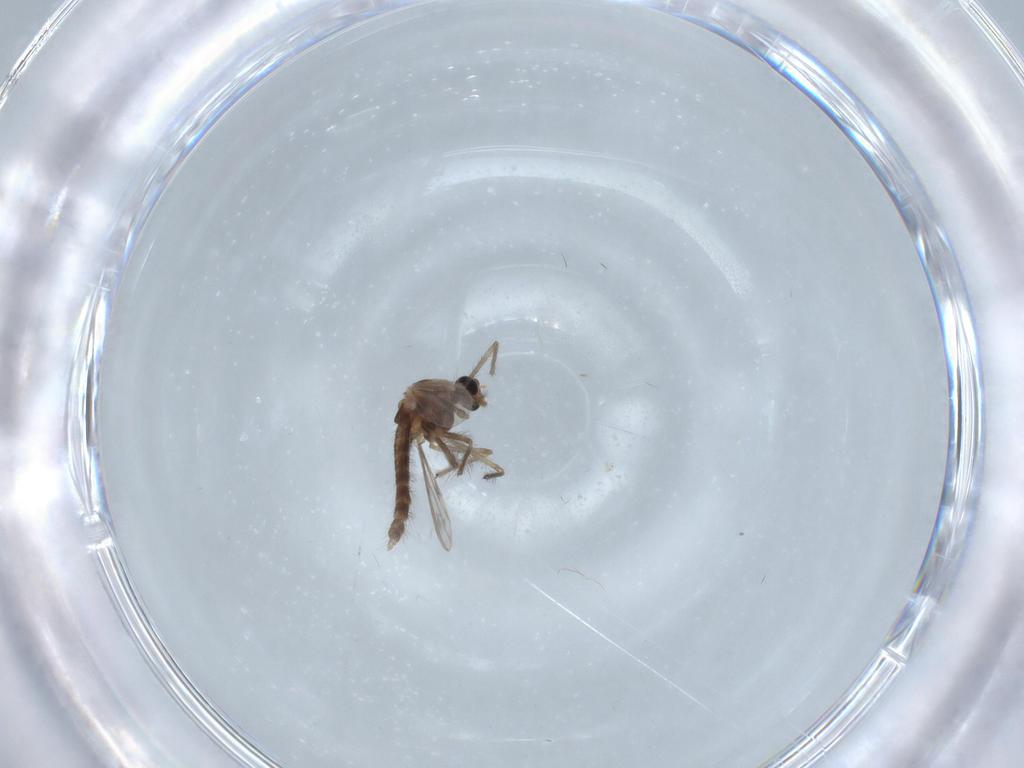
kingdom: Animalia
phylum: Arthropoda
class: Insecta
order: Diptera
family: Chironomidae
